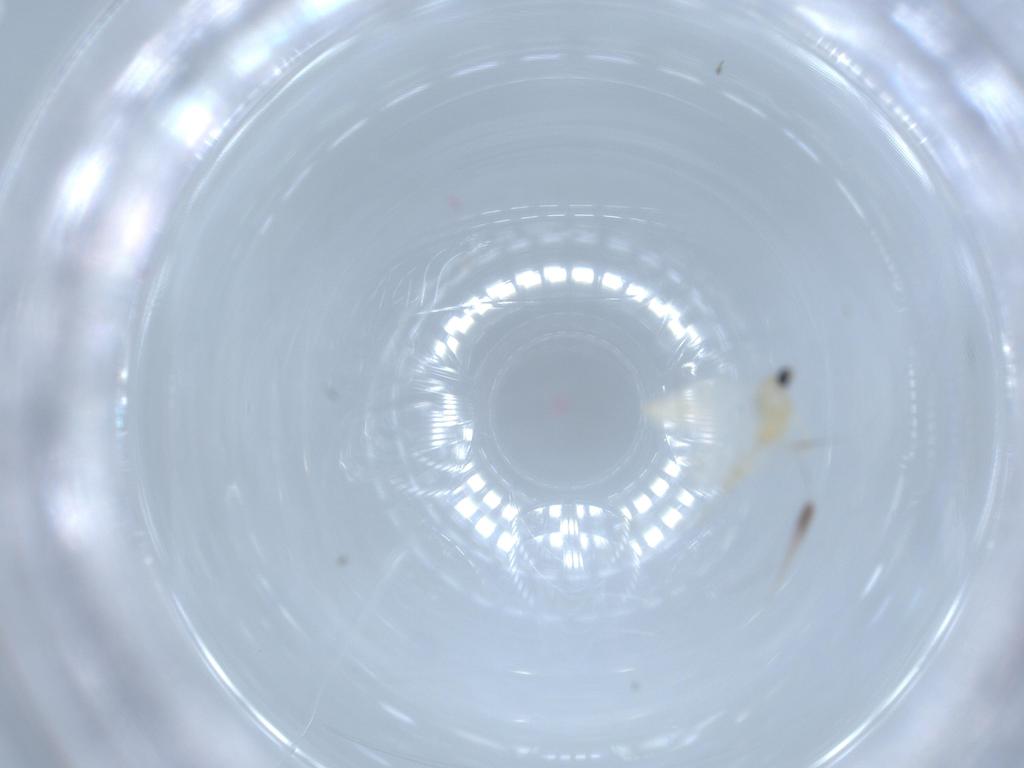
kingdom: Animalia
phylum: Arthropoda
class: Insecta
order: Diptera
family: Cecidomyiidae
